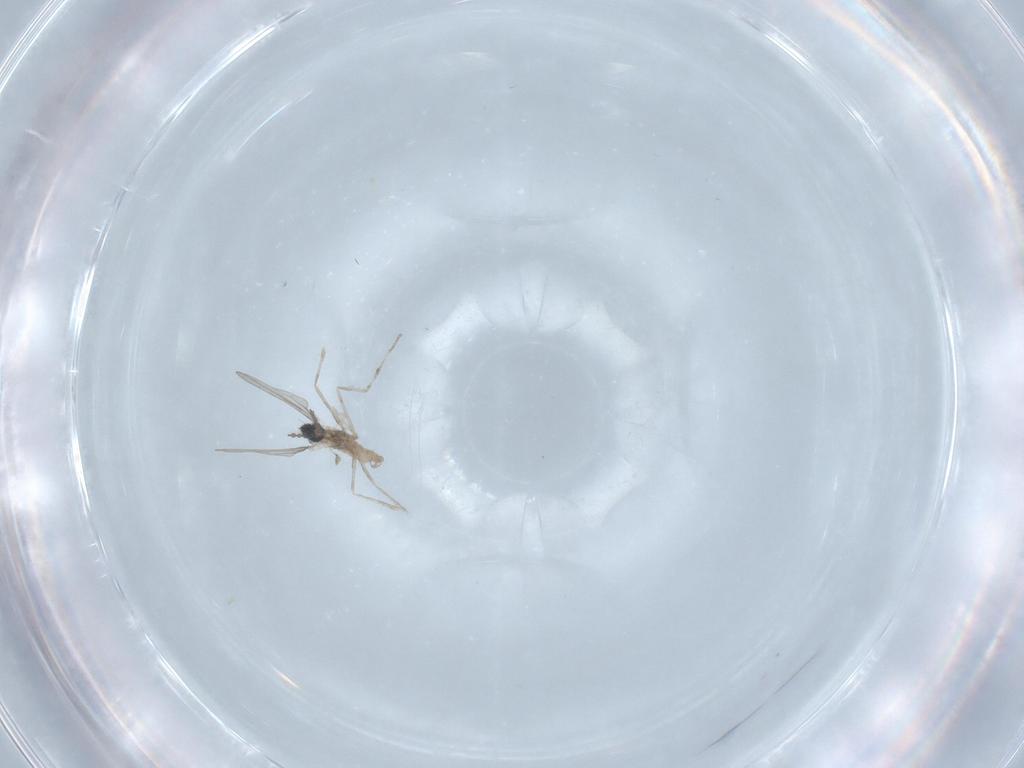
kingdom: Animalia
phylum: Arthropoda
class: Insecta
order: Diptera
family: Cecidomyiidae
